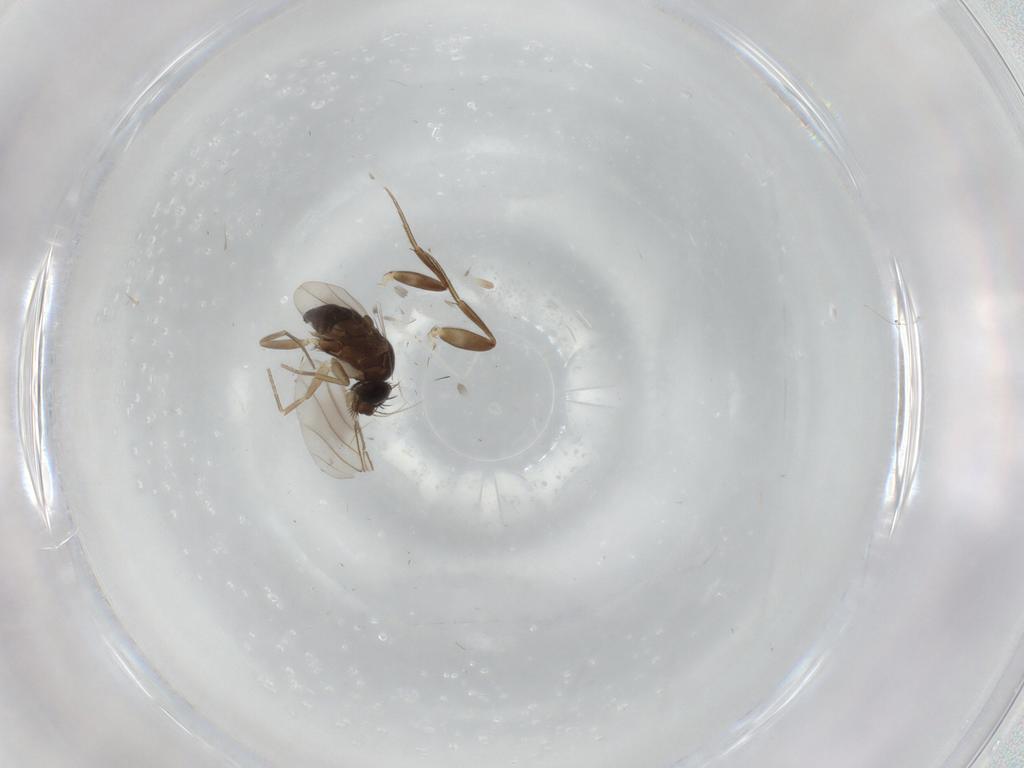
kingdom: Animalia
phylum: Arthropoda
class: Insecta
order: Diptera
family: Phoridae
